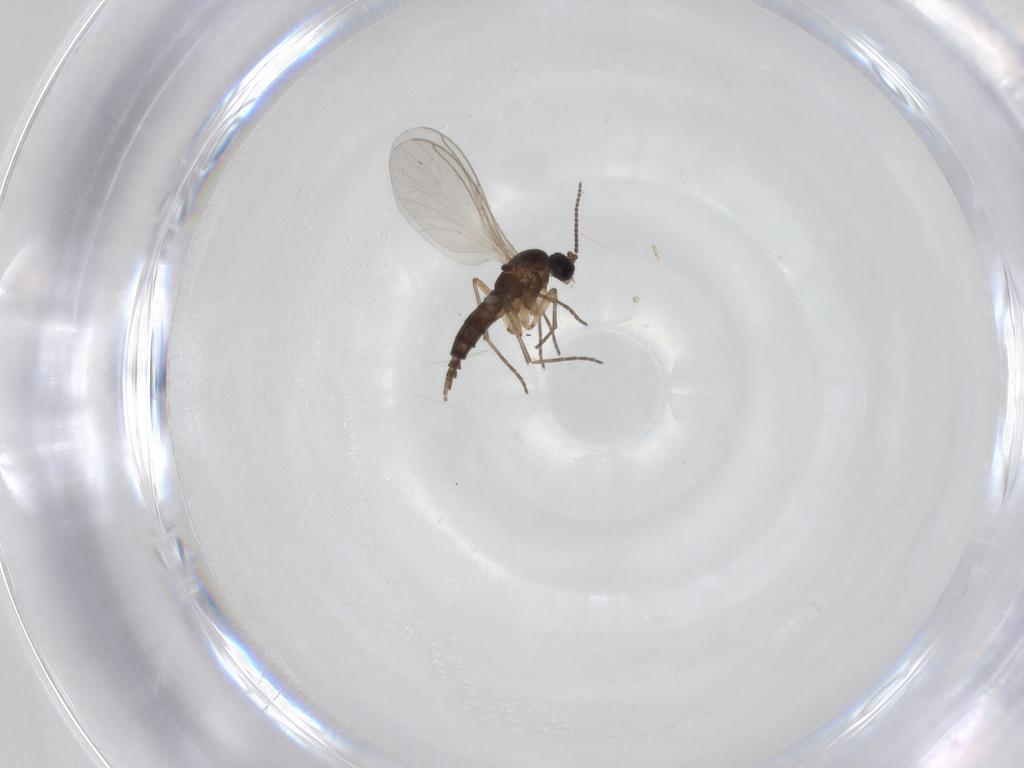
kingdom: Animalia
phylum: Arthropoda
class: Insecta
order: Diptera
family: Sciaridae
